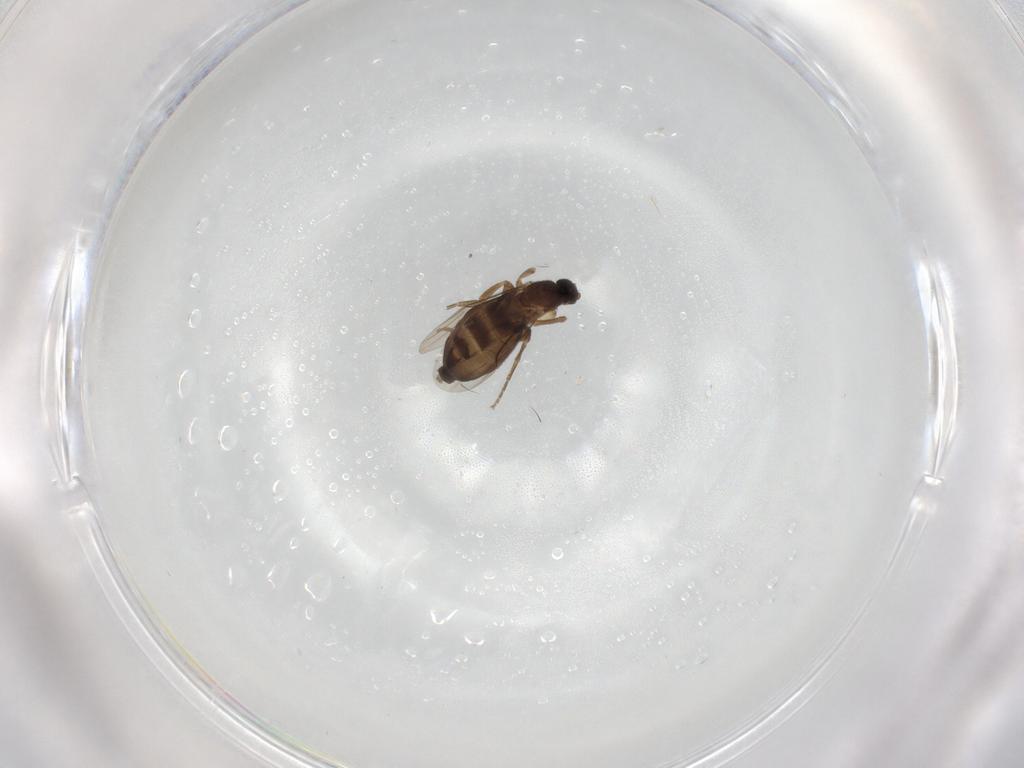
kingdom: Animalia
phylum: Arthropoda
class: Insecta
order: Diptera
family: Phoridae
